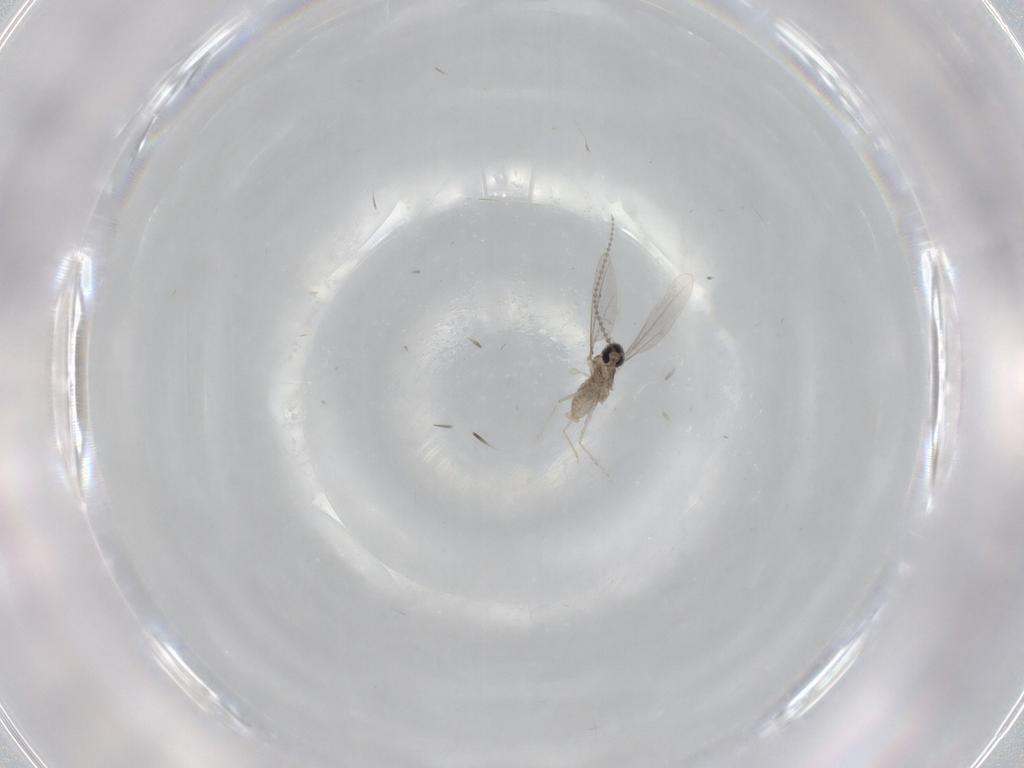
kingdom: Animalia
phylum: Arthropoda
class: Insecta
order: Diptera
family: Cecidomyiidae
